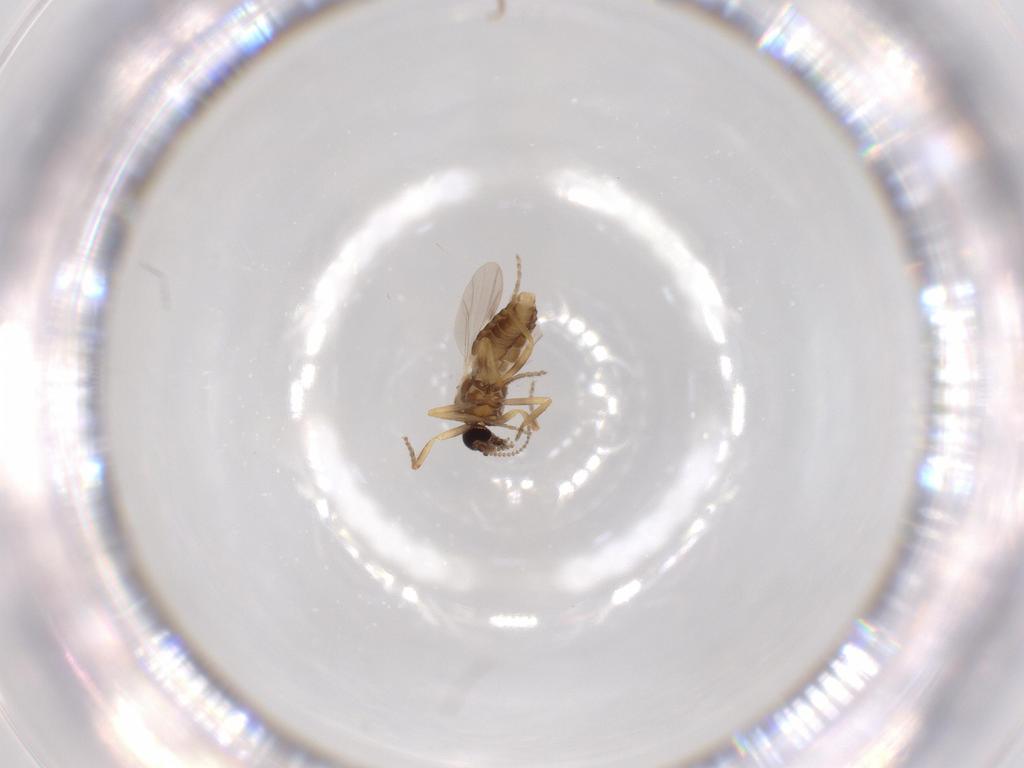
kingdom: Animalia
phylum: Arthropoda
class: Insecta
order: Diptera
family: Ceratopogonidae
